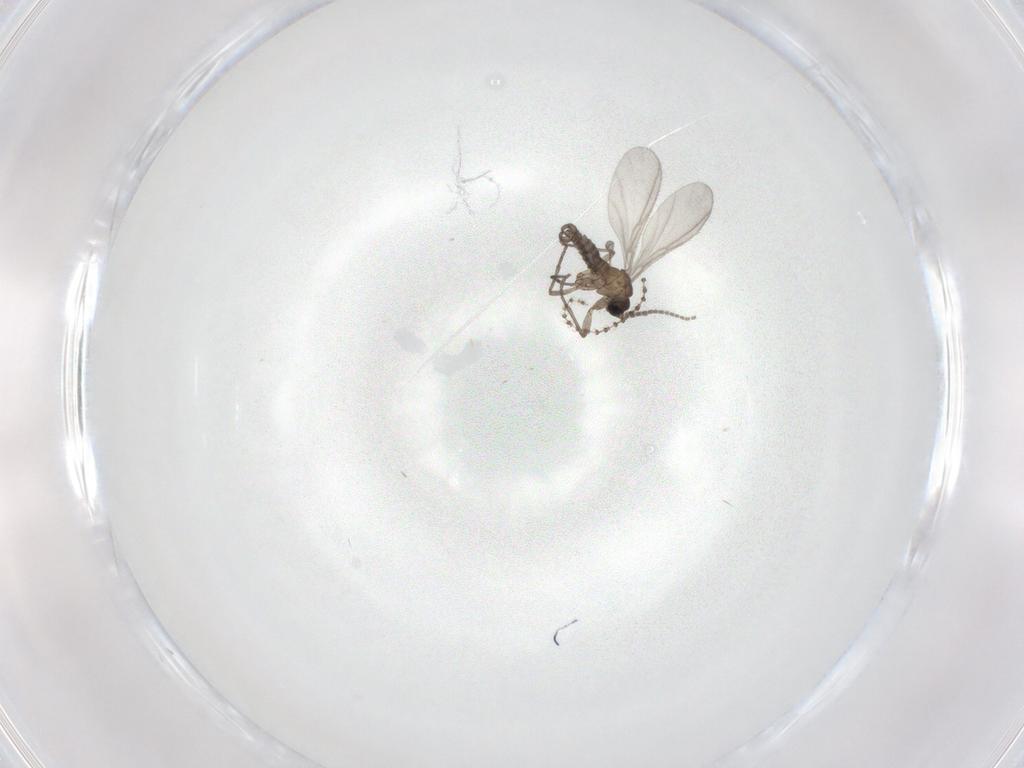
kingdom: Animalia
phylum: Arthropoda
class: Insecta
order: Diptera
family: Sciaridae
